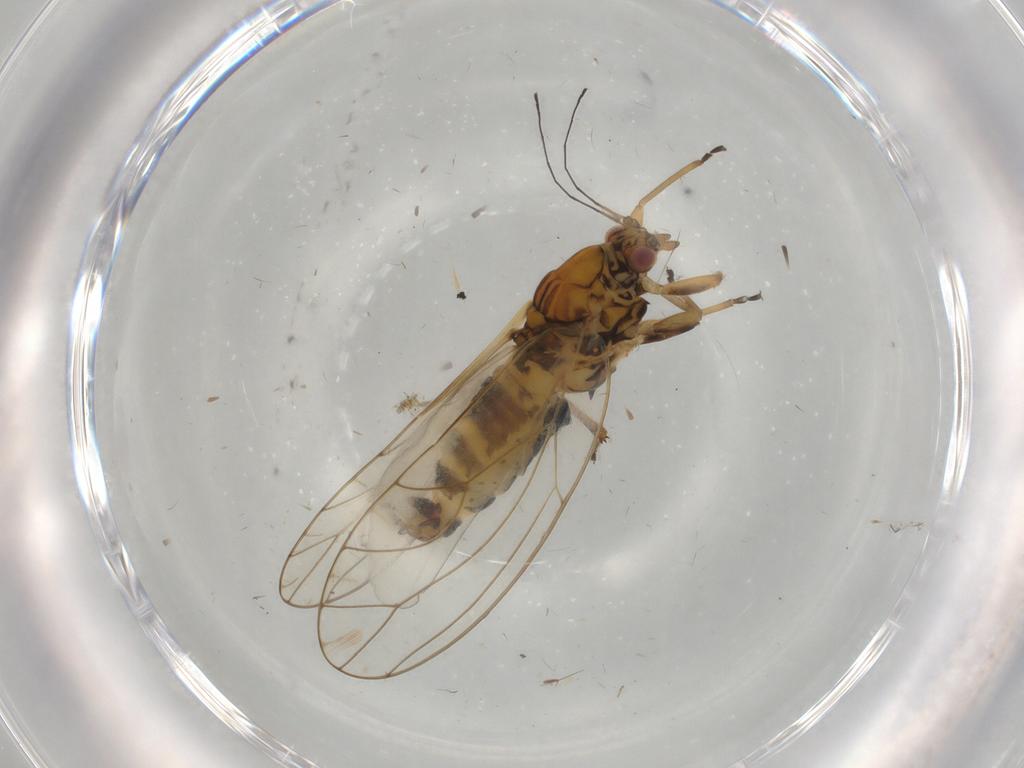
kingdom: Animalia
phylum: Arthropoda
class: Insecta
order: Hemiptera
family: Triozidae
